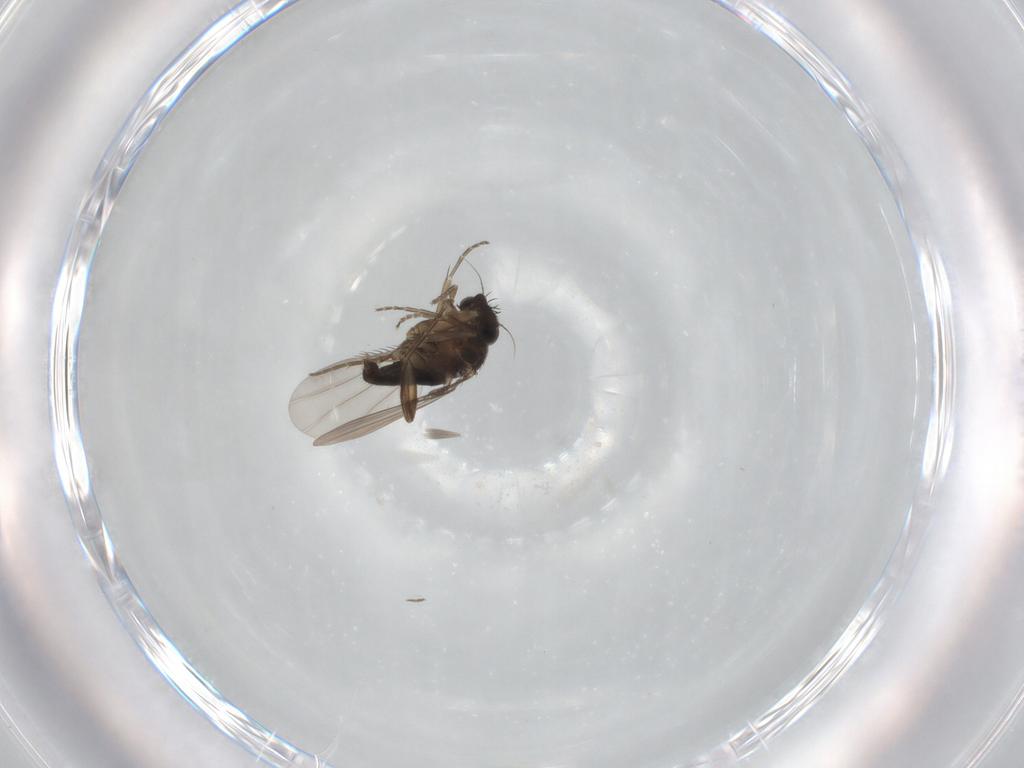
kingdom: Animalia
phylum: Arthropoda
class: Insecta
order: Diptera
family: Phoridae
